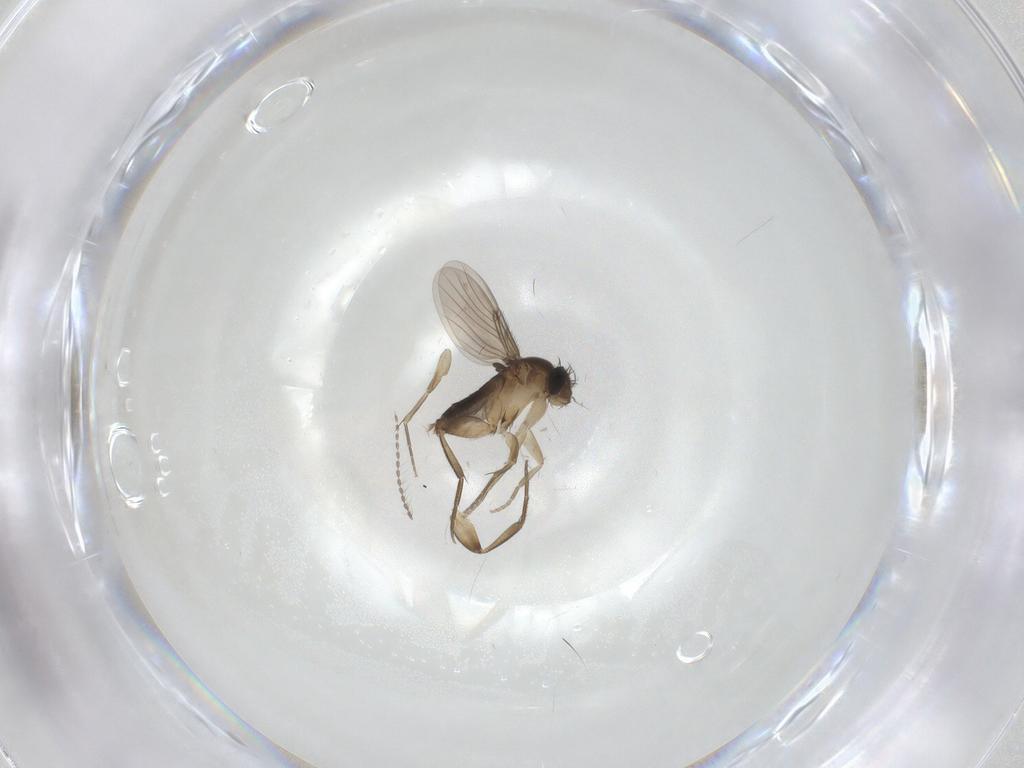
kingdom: Animalia
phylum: Arthropoda
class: Insecta
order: Diptera
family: Phoridae
